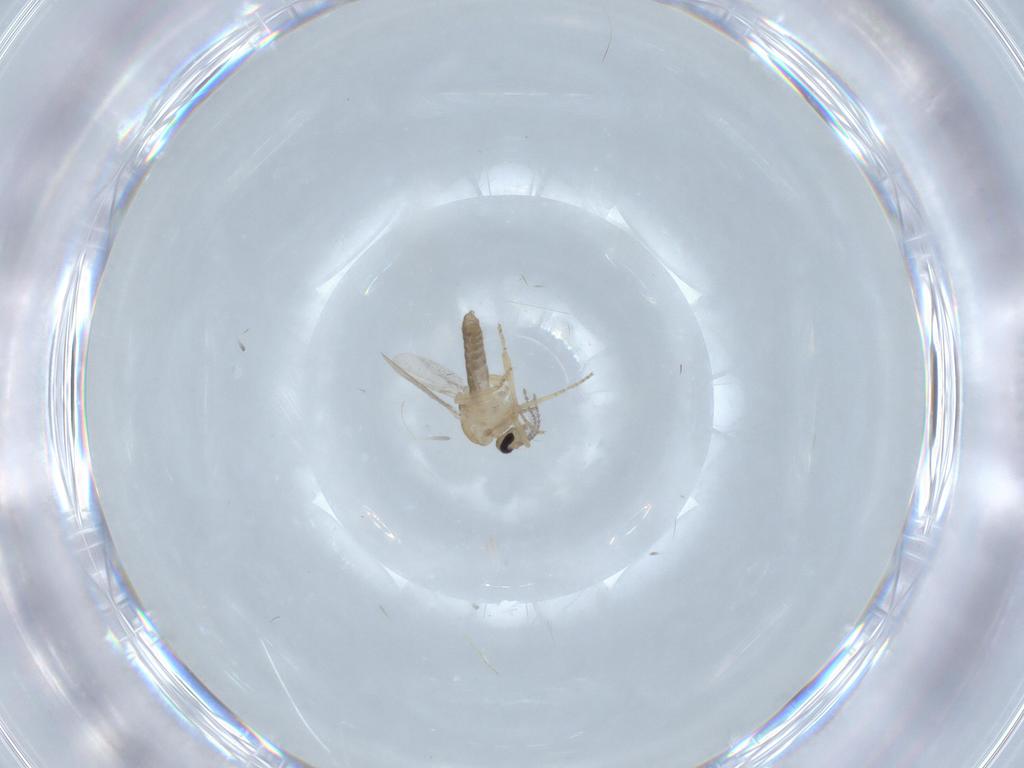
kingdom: Animalia
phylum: Arthropoda
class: Insecta
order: Diptera
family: Ceratopogonidae
